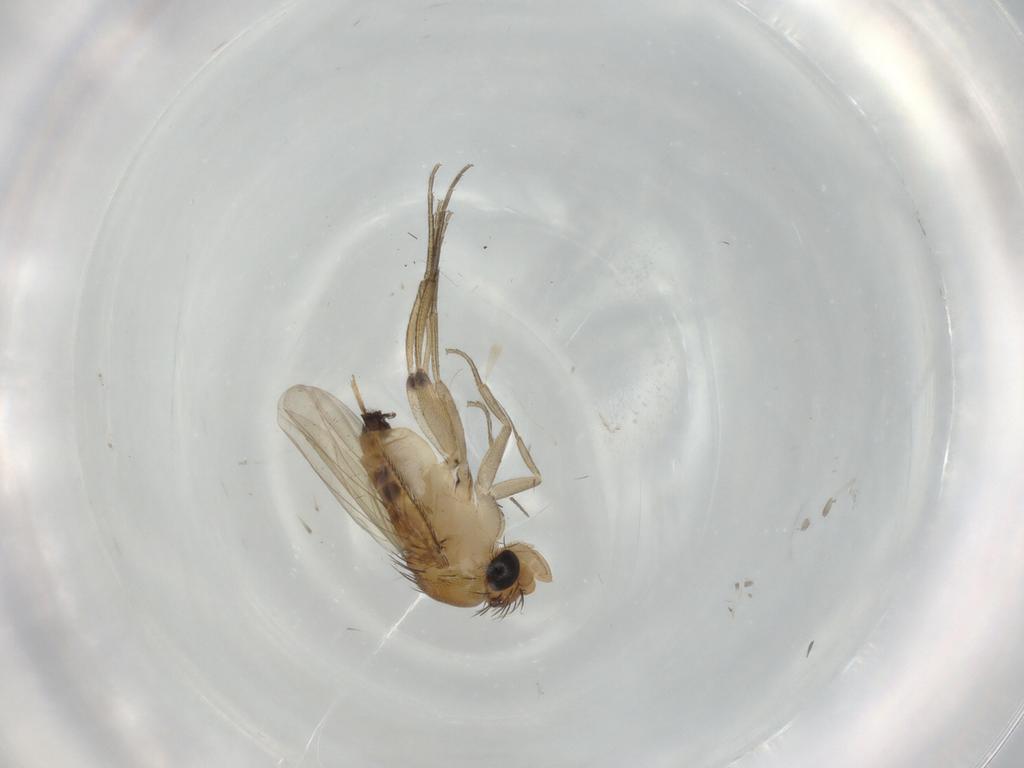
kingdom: Animalia
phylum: Arthropoda
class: Insecta
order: Diptera
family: Phoridae
